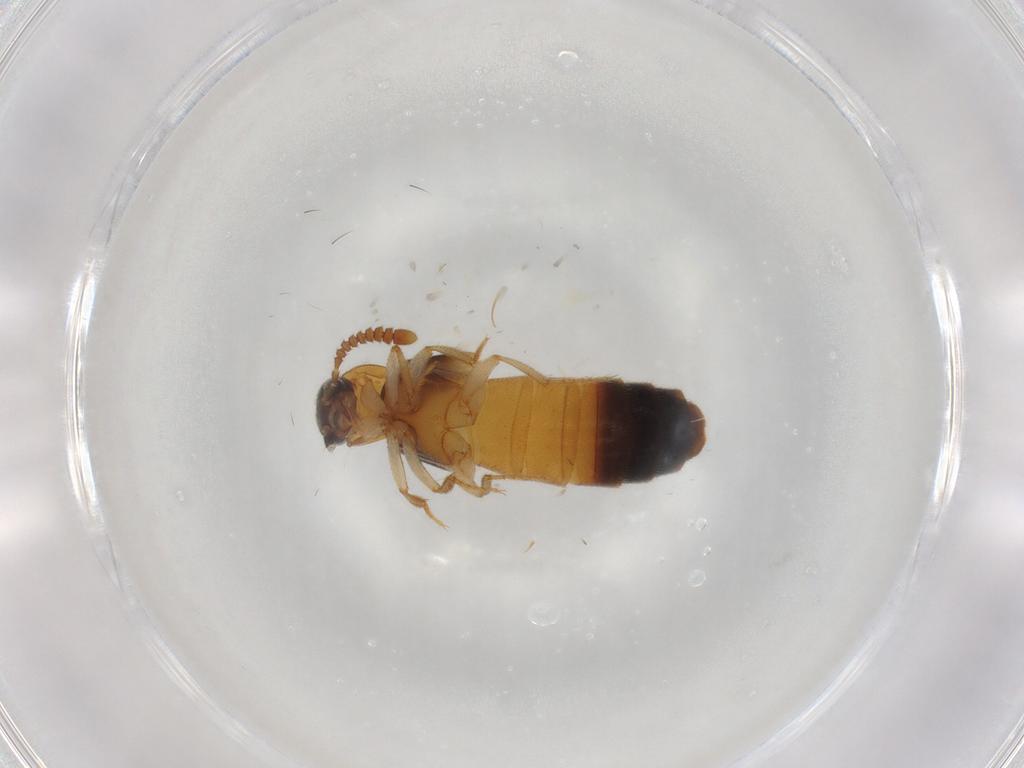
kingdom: Animalia
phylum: Arthropoda
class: Insecta
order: Coleoptera
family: Staphylinidae
